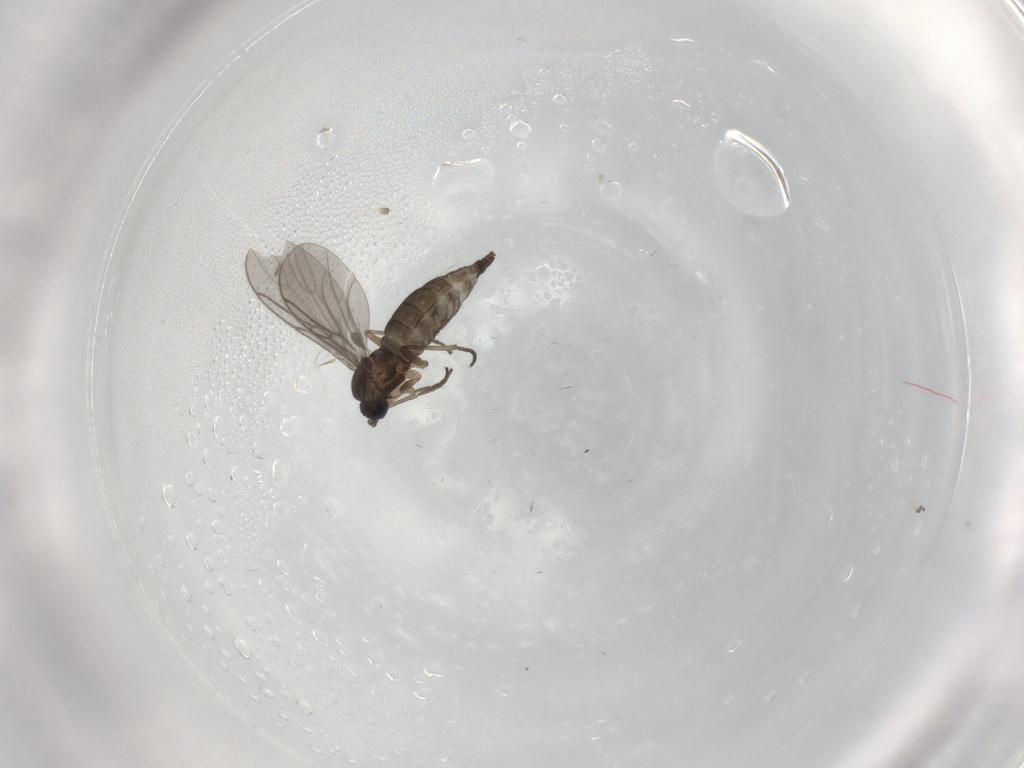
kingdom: Animalia
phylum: Arthropoda
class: Insecta
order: Diptera
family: Sciaridae
